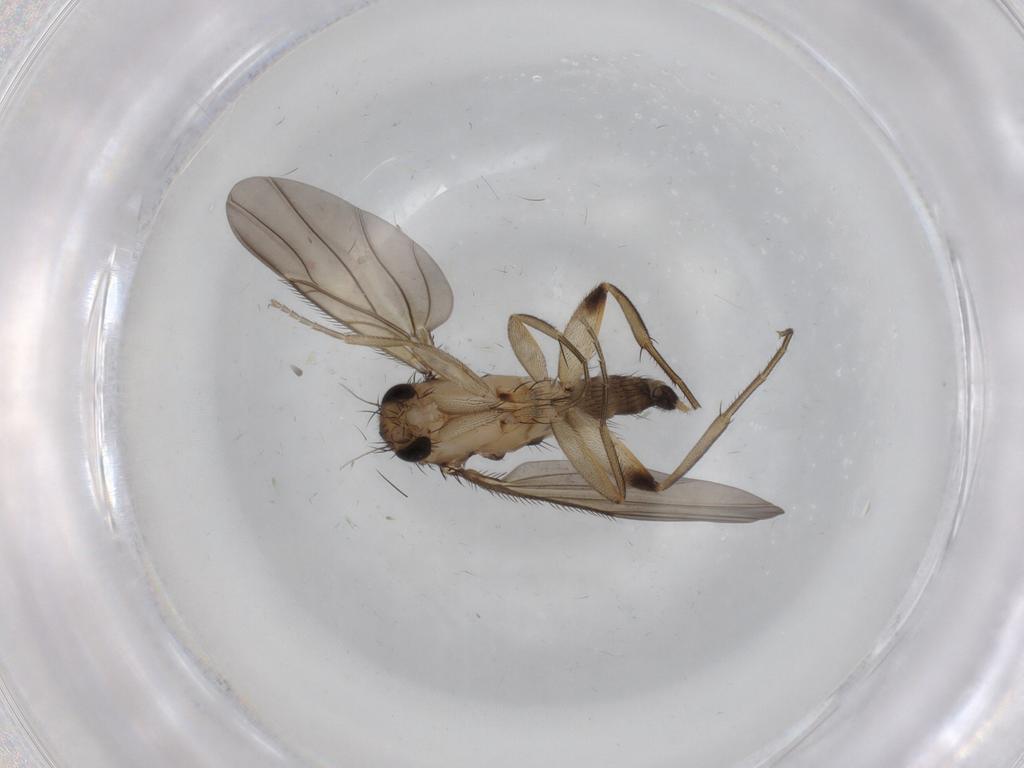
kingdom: Animalia
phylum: Arthropoda
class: Insecta
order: Diptera
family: Phoridae
